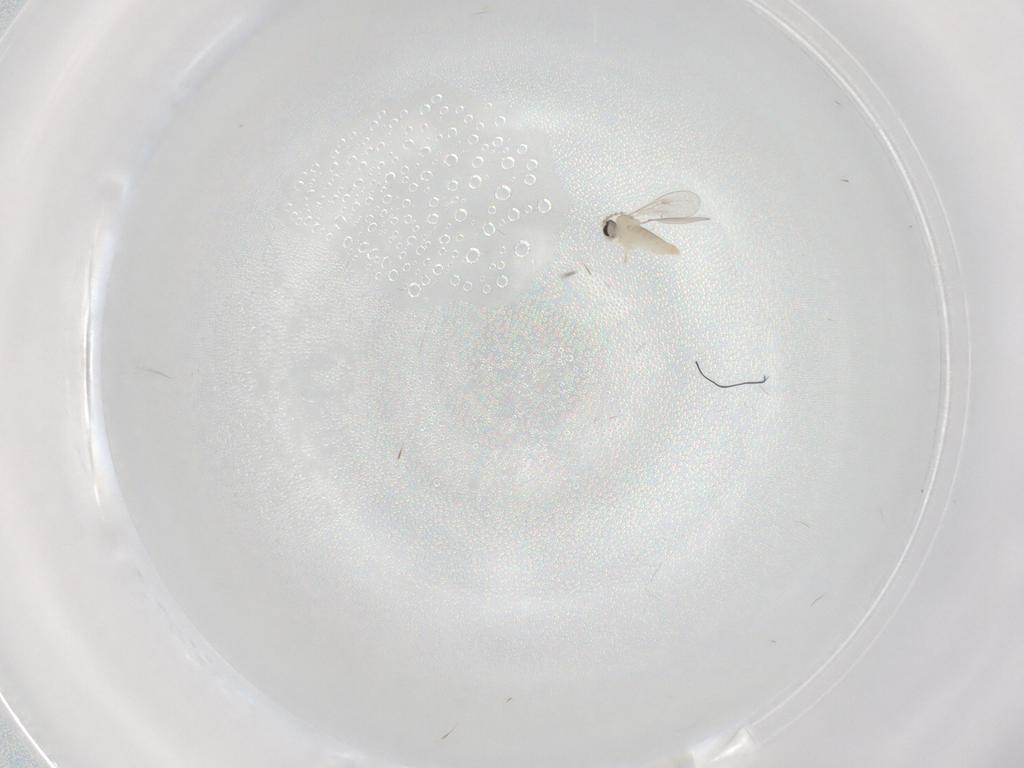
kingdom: Animalia
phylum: Arthropoda
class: Insecta
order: Diptera
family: Cecidomyiidae
